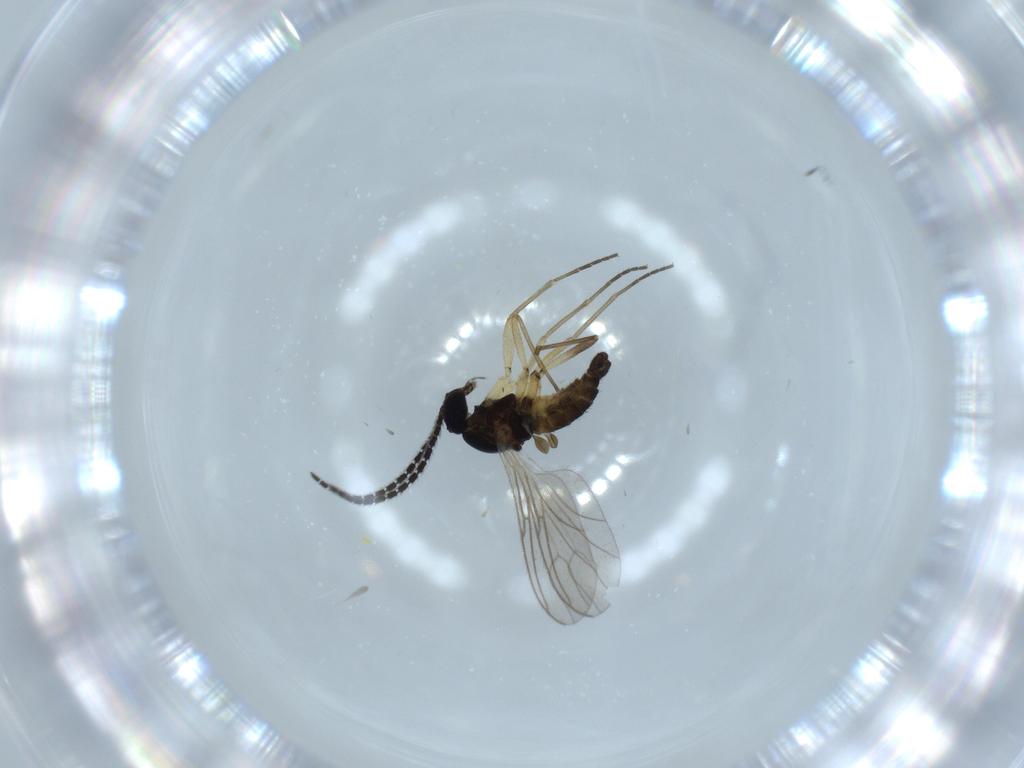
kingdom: Animalia
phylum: Arthropoda
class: Insecta
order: Diptera
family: Sciaridae
